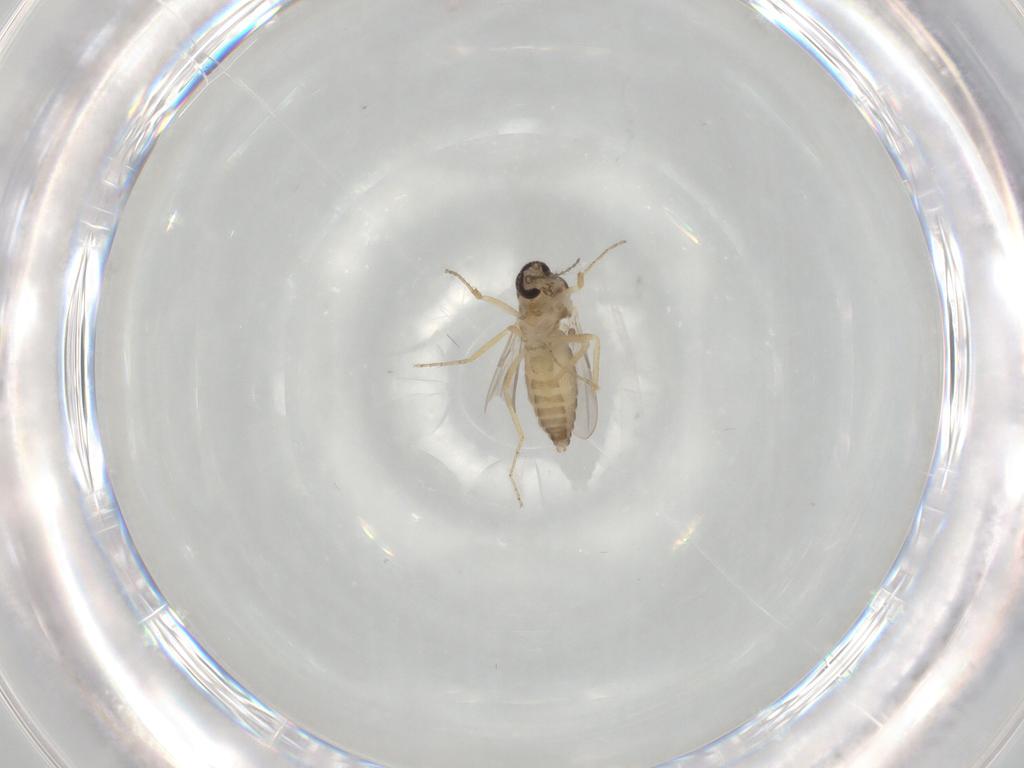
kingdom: Animalia
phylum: Arthropoda
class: Insecta
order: Diptera
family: Ceratopogonidae
